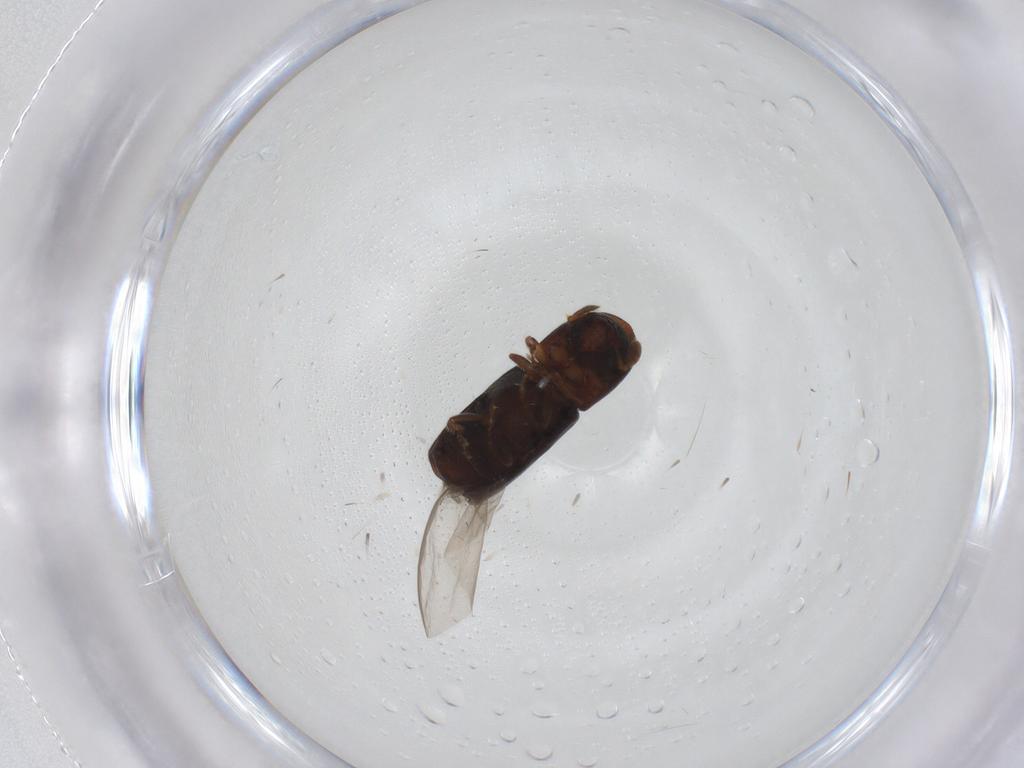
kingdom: Animalia
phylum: Arthropoda
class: Insecta
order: Coleoptera
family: Curculionidae
